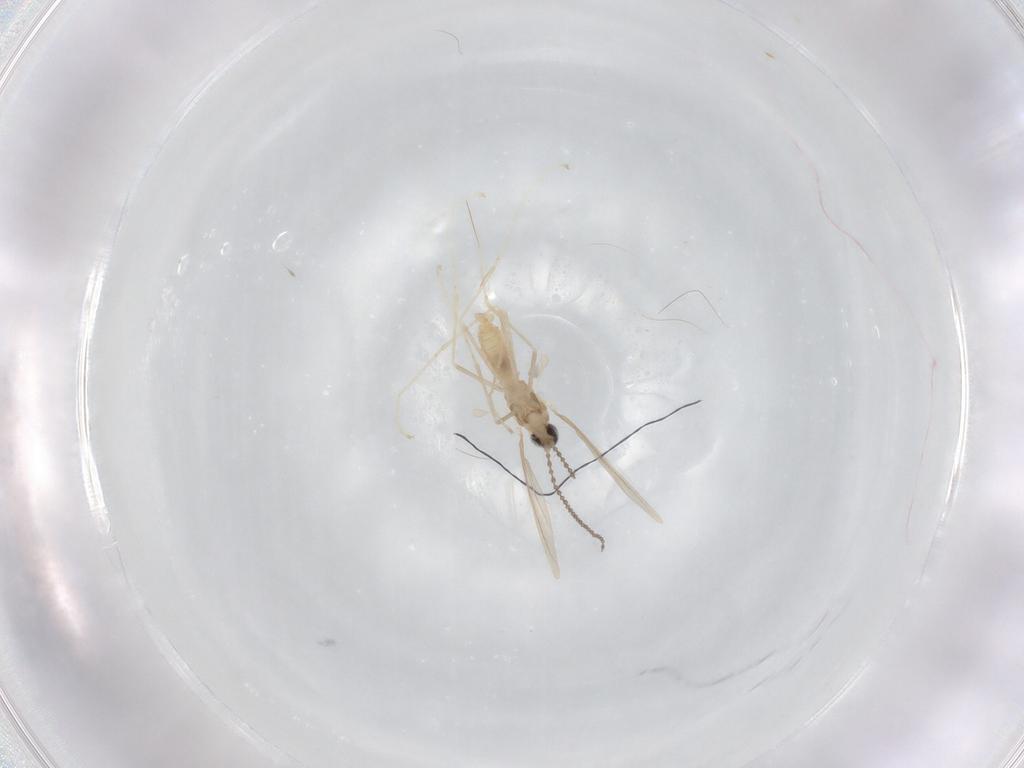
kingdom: Animalia
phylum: Arthropoda
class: Insecta
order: Diptera
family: Cecidomyiidae
